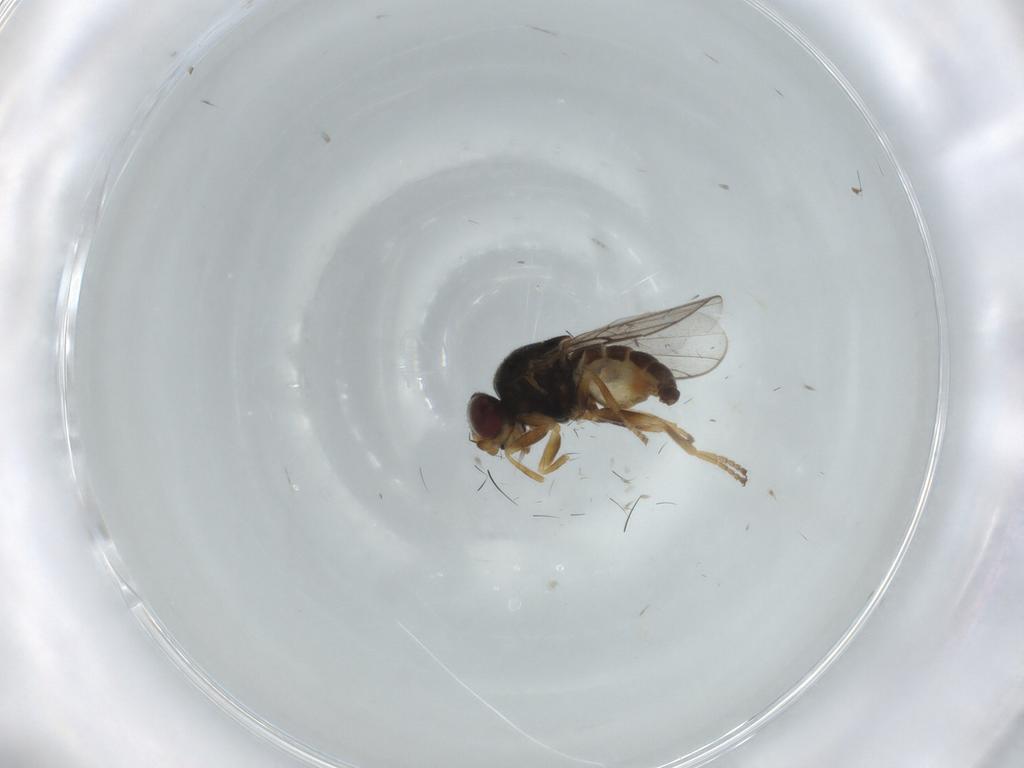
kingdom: Animalia
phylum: Arthropoda
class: Insecta
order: Diptera
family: Chloropidae
